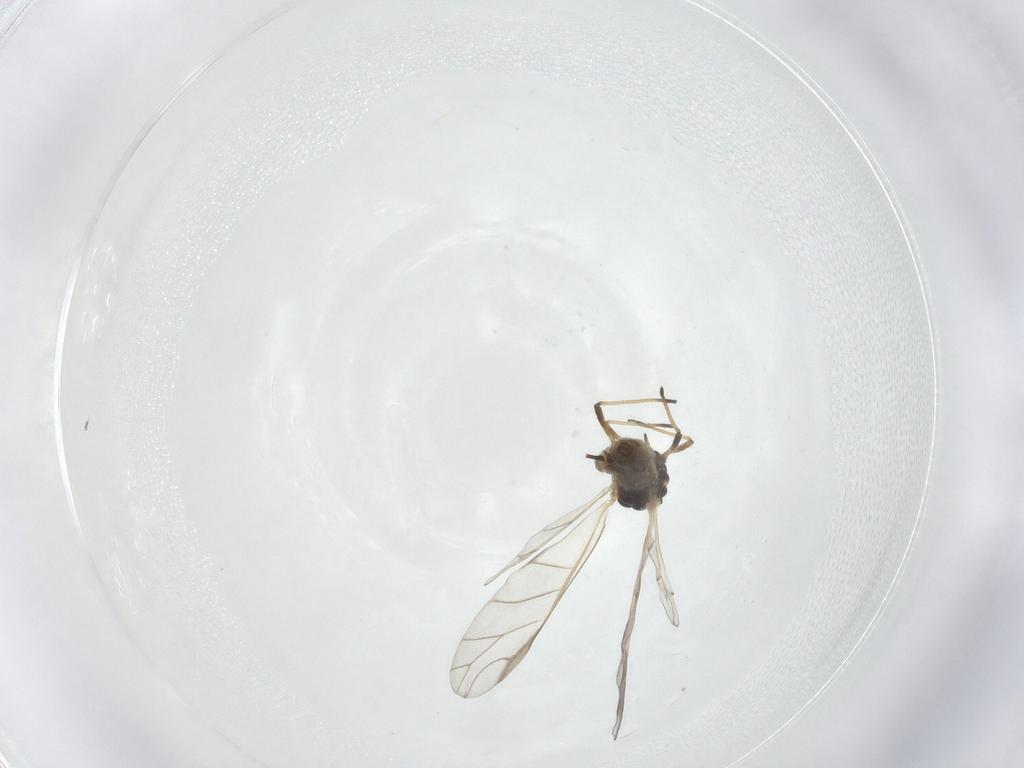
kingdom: Animalia
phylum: Arthropoda
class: Insecta
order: Hemiptera
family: Aphididae
